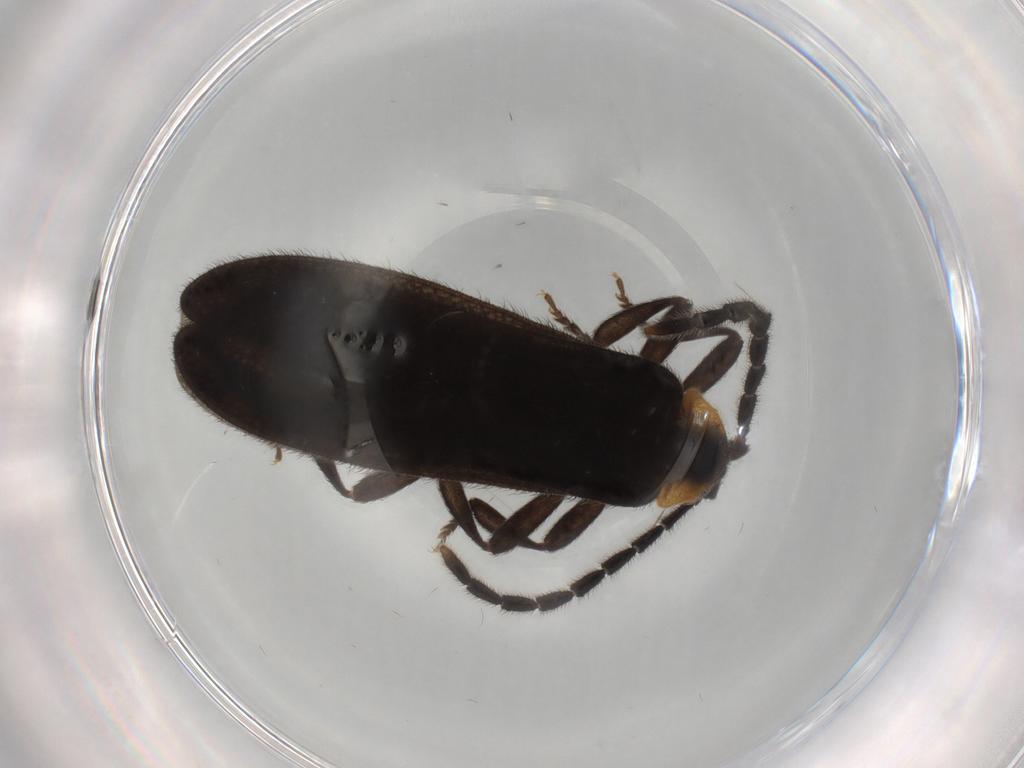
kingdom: Animalia
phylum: Arthropoda
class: Insecta
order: Coleoptera
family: Lycidae
